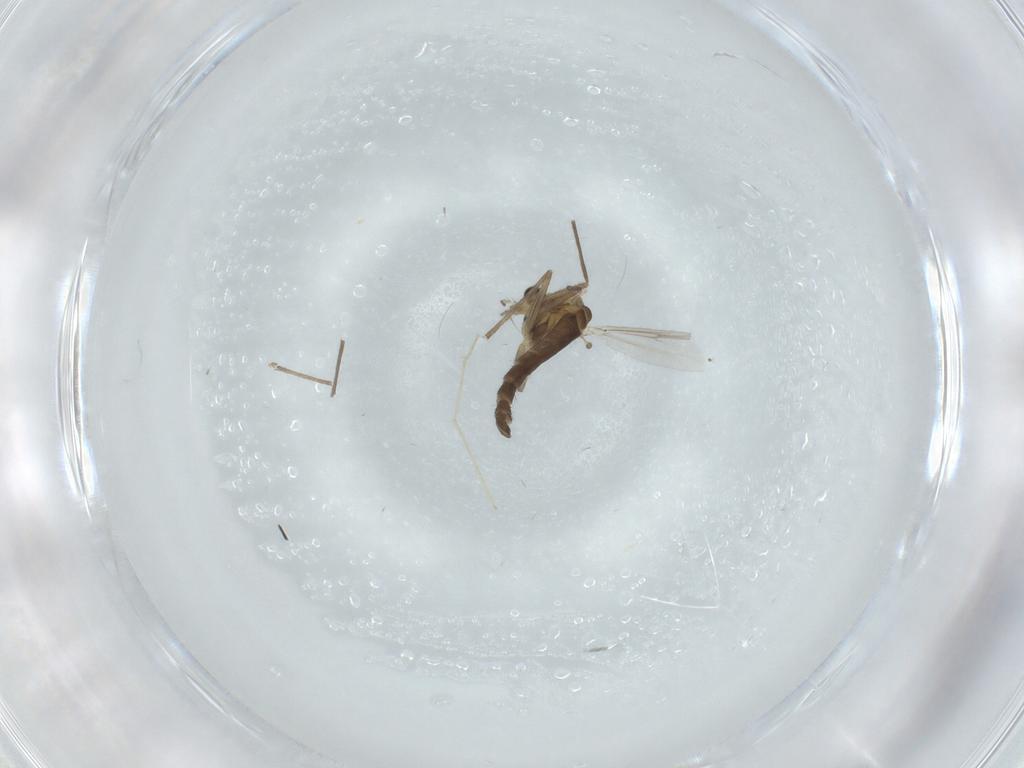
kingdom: Animalia
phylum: Arthropoda
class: Insecta
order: Diptera
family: Chironomidae
